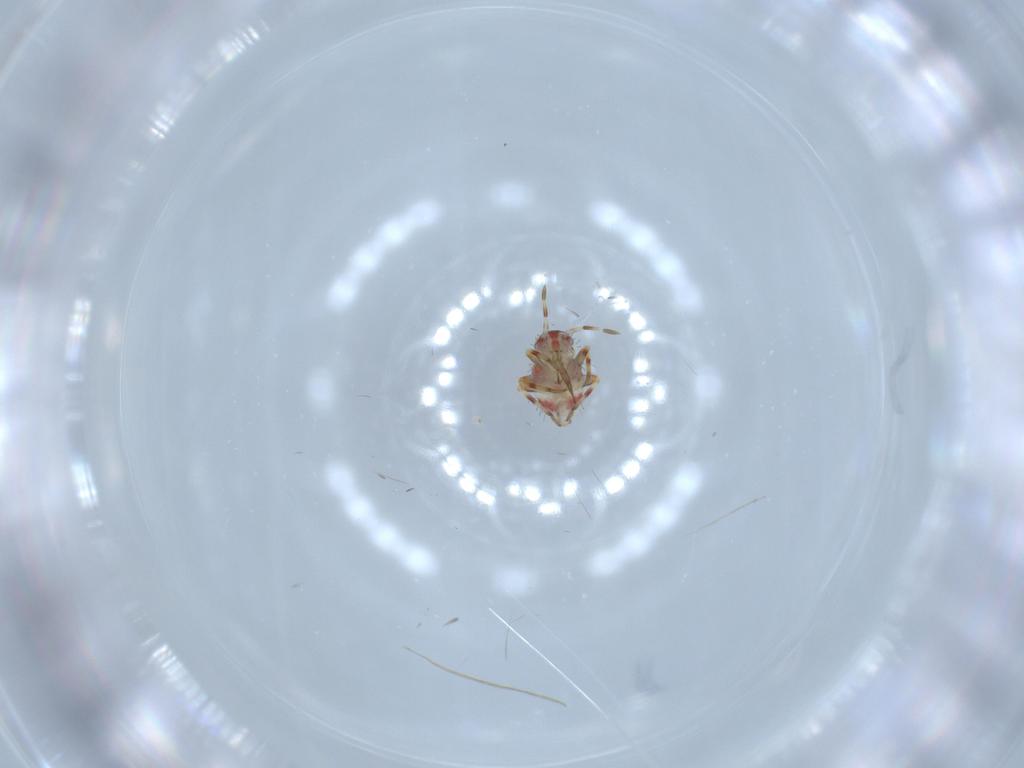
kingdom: Animalia
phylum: Arthropoda
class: Insecta
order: Hemiptera
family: Miridae
